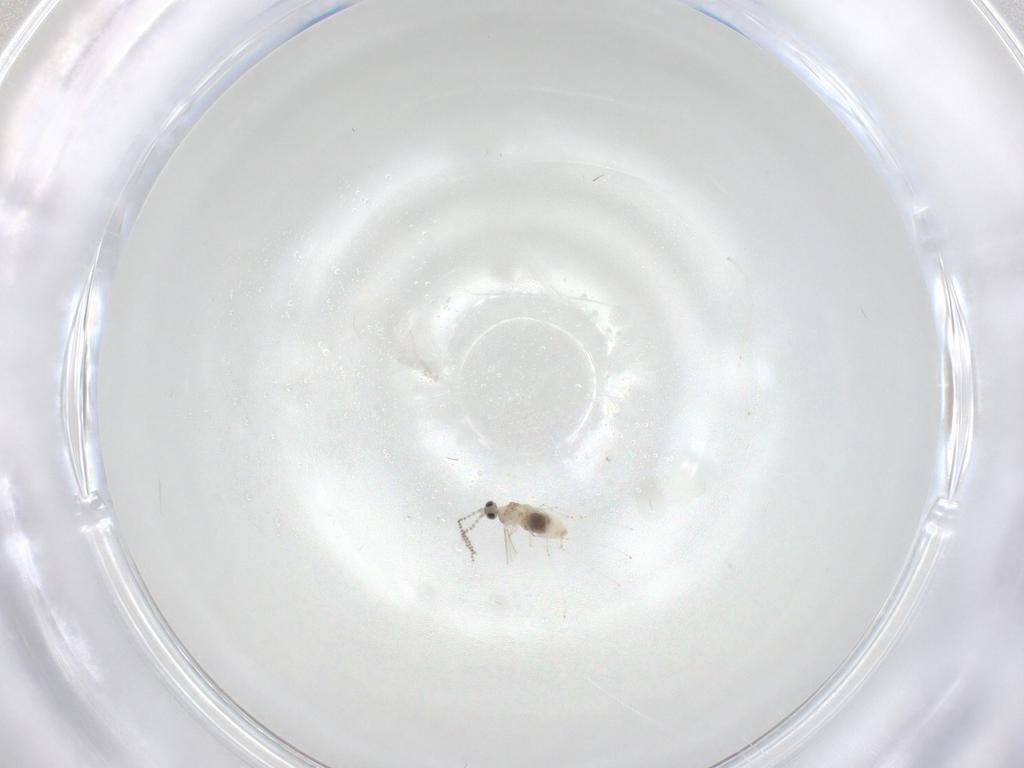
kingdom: Animalia
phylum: Arthropoda
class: Insecta
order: Diptera
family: Cecidomyiidae
